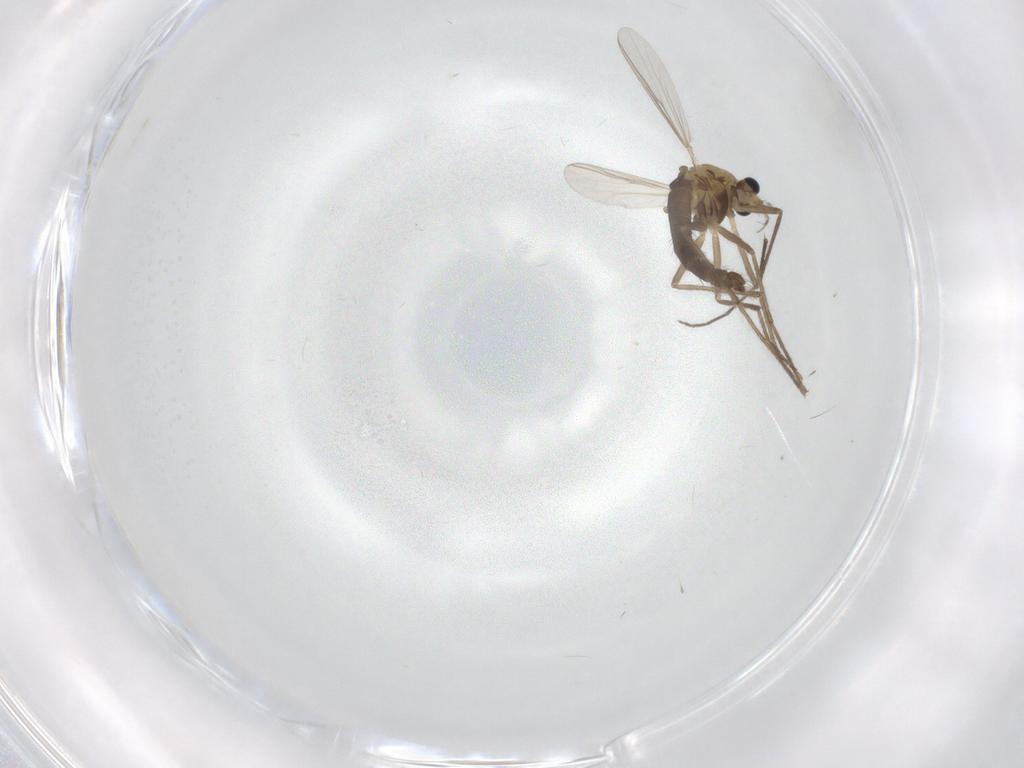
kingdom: Animalia
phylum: Arthropoda
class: Insecta
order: Diptera
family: Chironomidae
